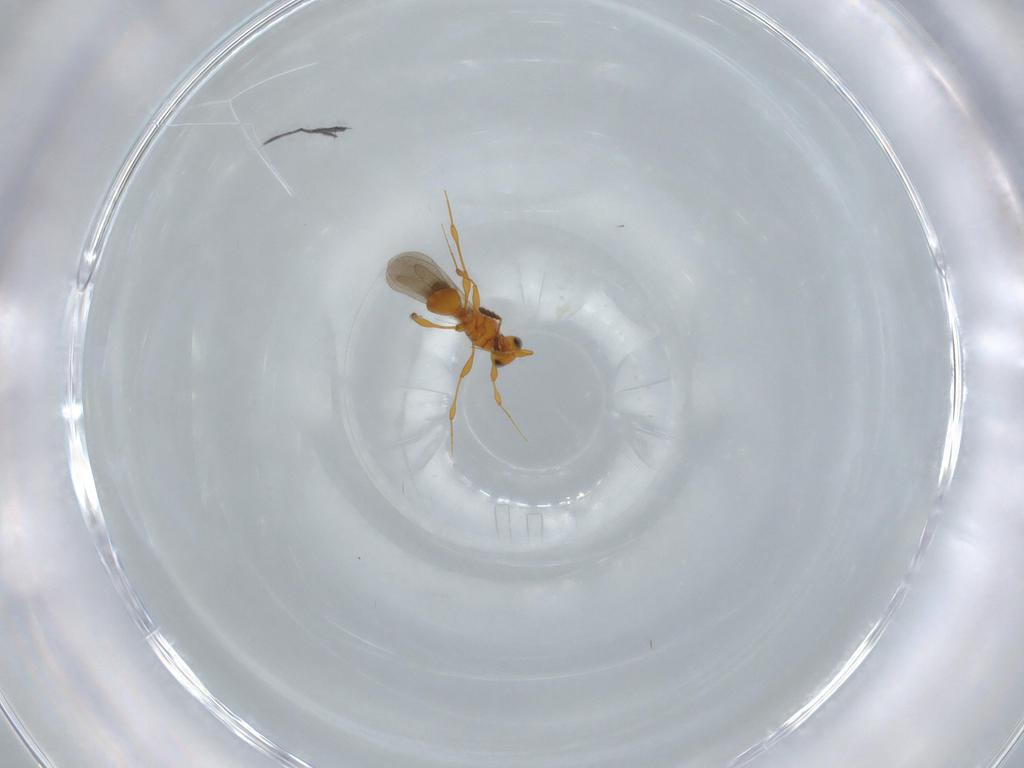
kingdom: Animalia
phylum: Arthropoda
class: Insecta
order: Hymenoptera
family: Platygastridae
